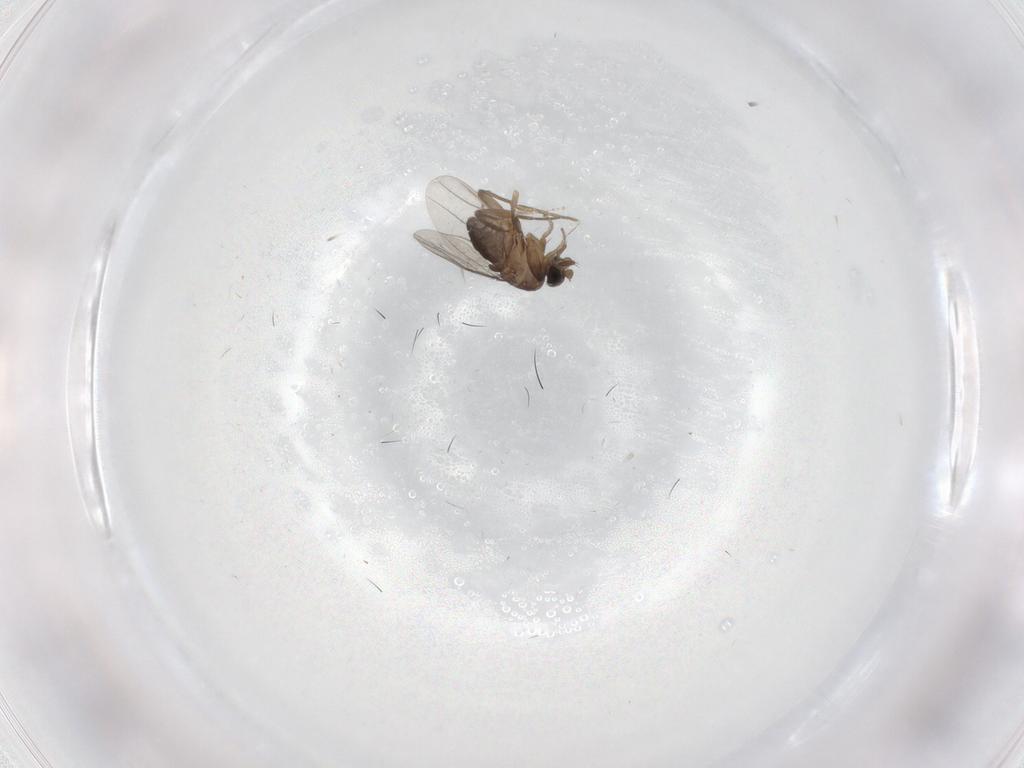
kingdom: Animalia
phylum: Arthropoda
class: Insecta
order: Diptera
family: Phoridae
